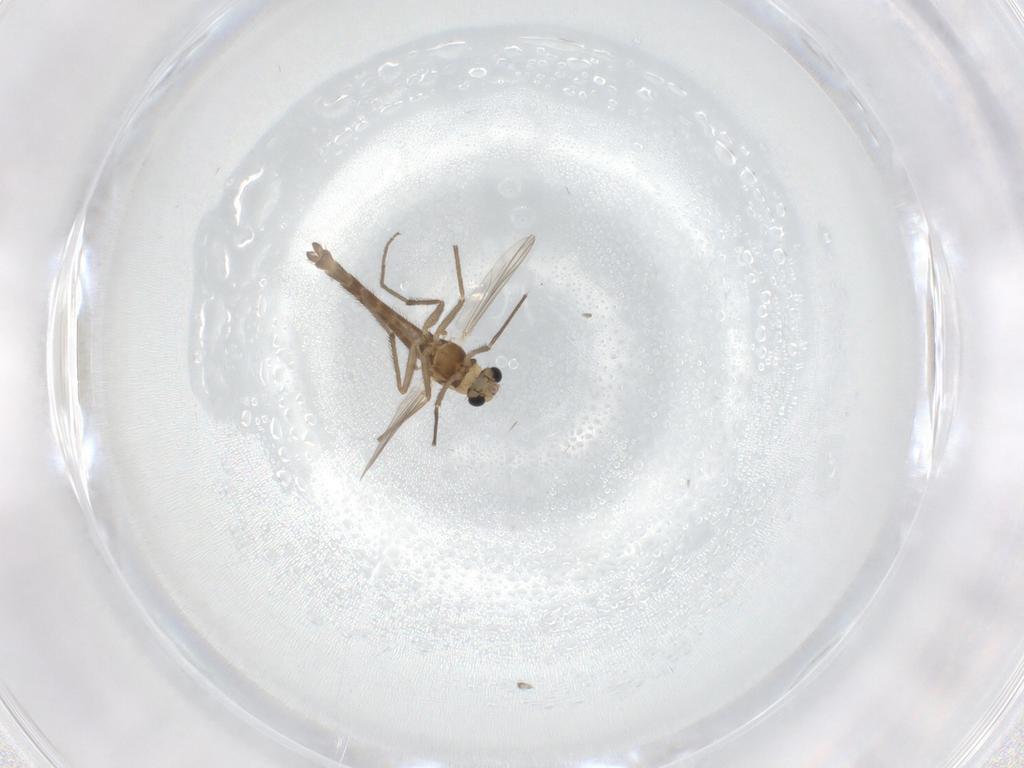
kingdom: Animalia
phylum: Arthropoda
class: Insecta
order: Diptera
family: Chironomidae
